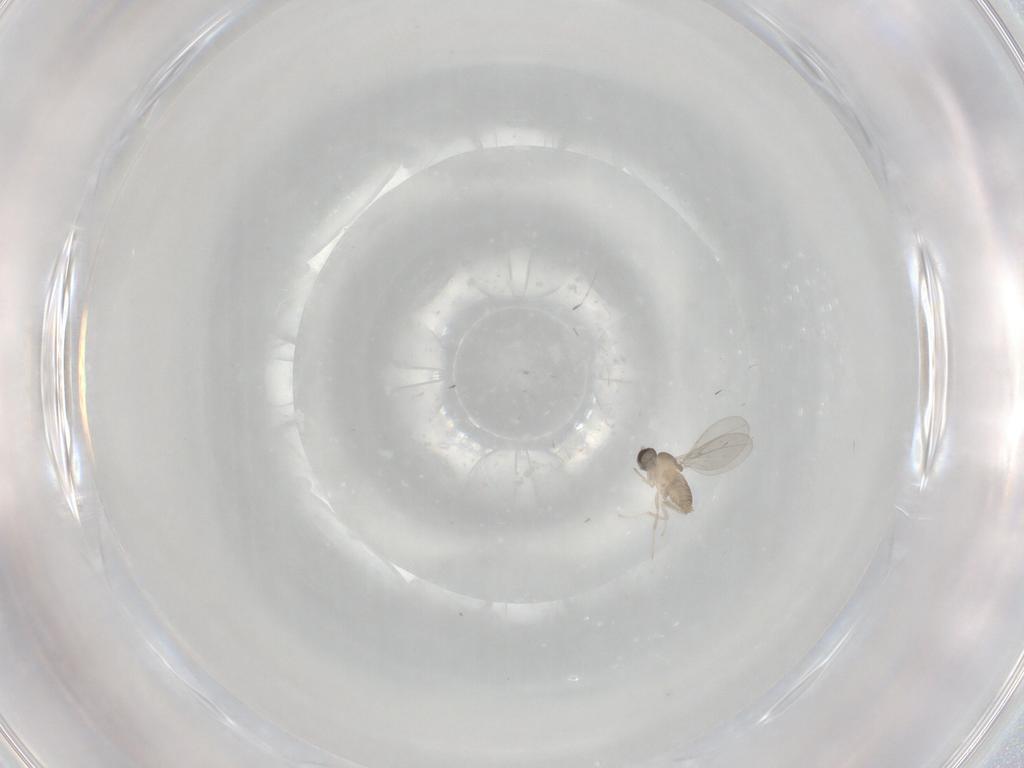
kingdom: Animalia
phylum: Arthropoda
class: Insecta
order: Diptera
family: Cecidomyiidae
